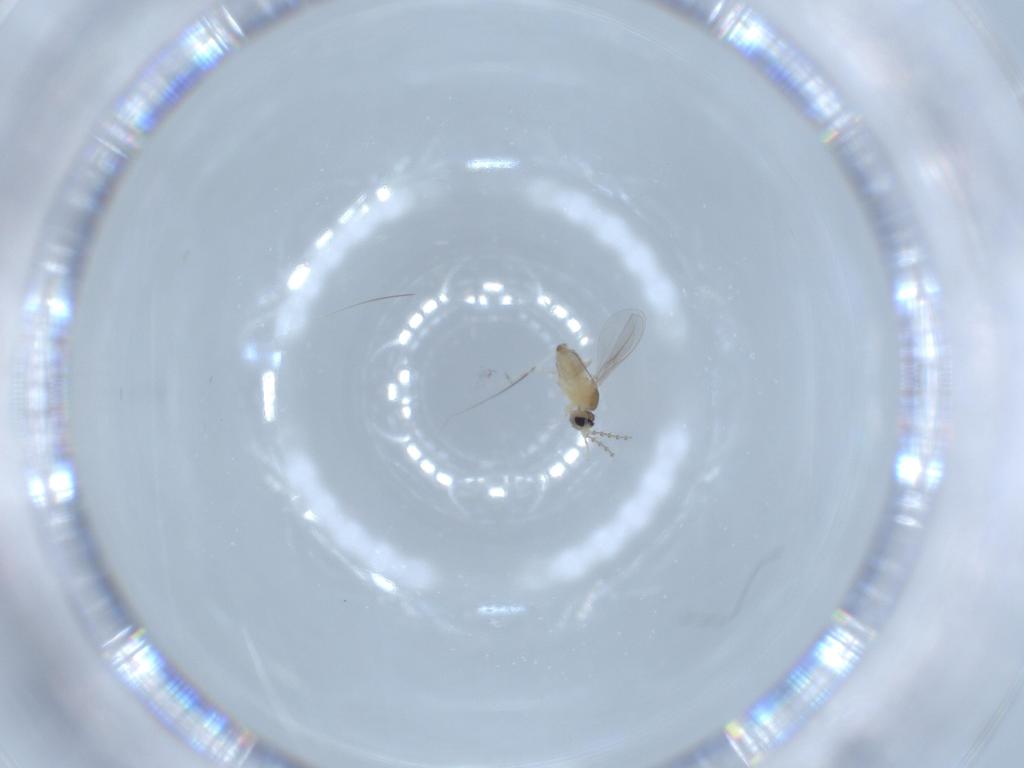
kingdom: Animalia
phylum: Arthropoda
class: Insecta
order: Diptera
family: Cecidomyiidae
